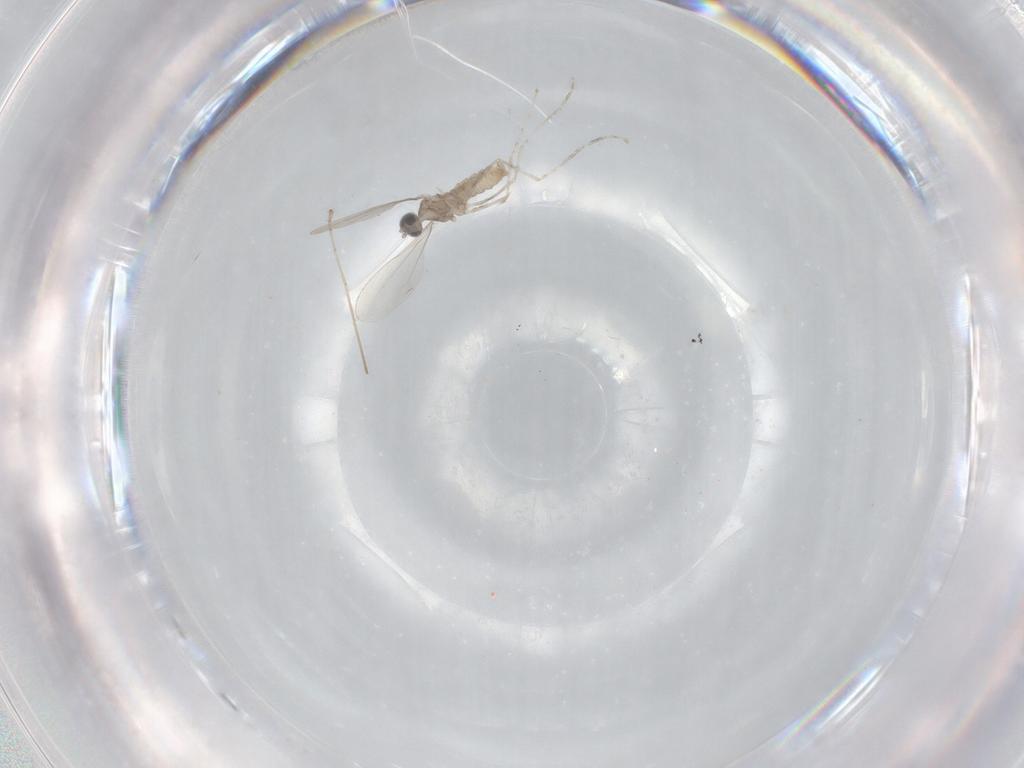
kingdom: Animalia
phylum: Arthropoda
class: Insecta
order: Diptera
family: Cecidomyiidae
